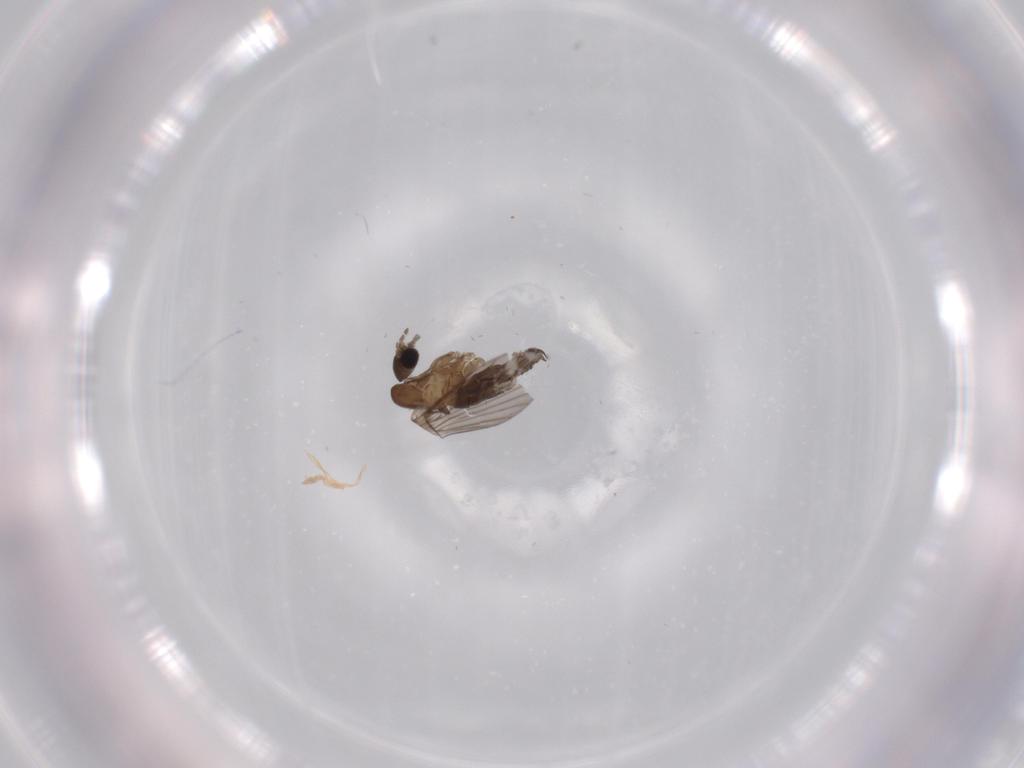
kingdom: Animalia
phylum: Arthropoda
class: Insecta
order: Diptera
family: Psychodidae
